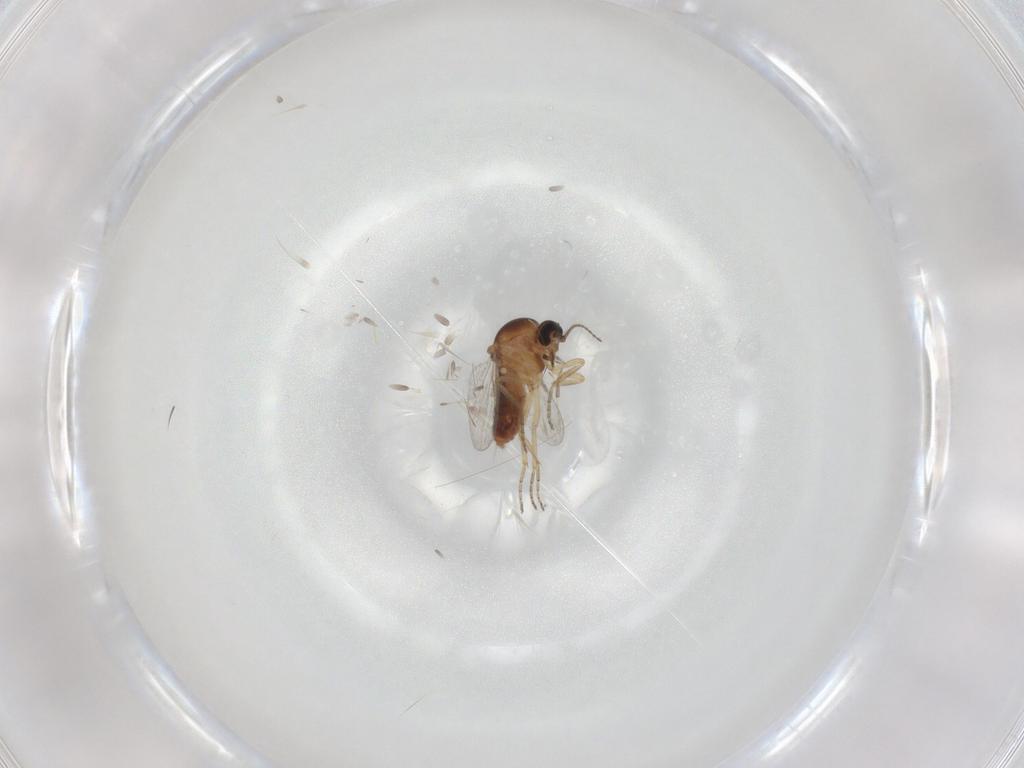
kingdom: Animalia
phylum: Arthropoda
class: Insecta
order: Diptera
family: Ceratopogonidae
